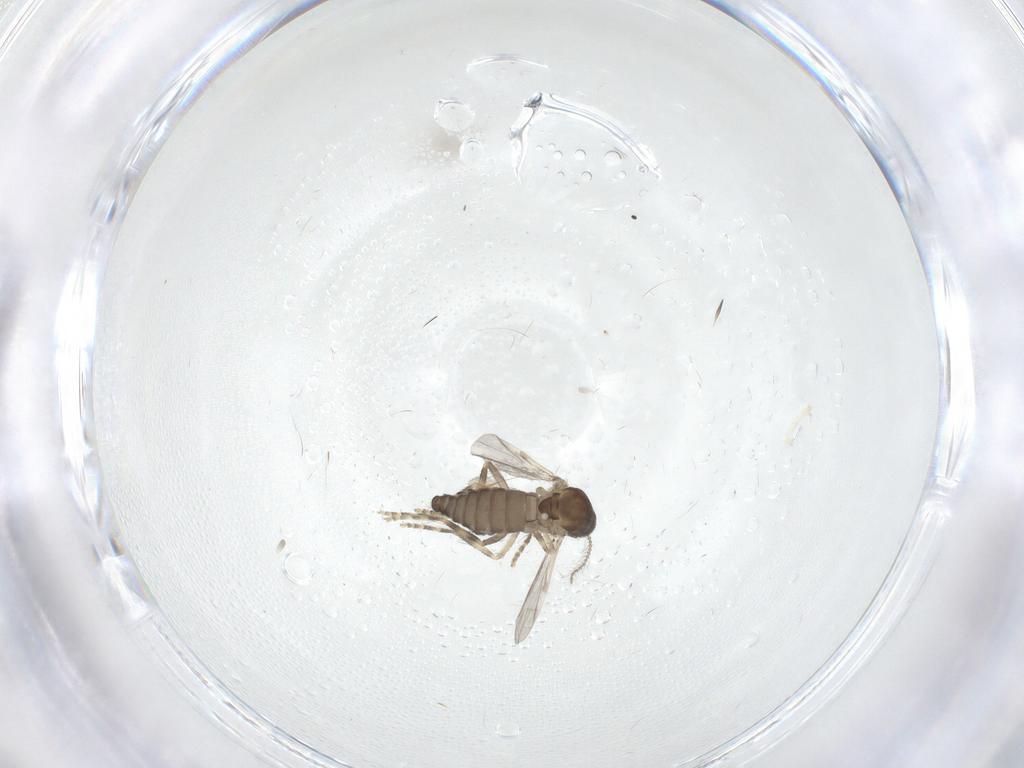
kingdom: Animalia
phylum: Arthropoda
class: Insecta
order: Diptera
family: Ceratopogonidae
